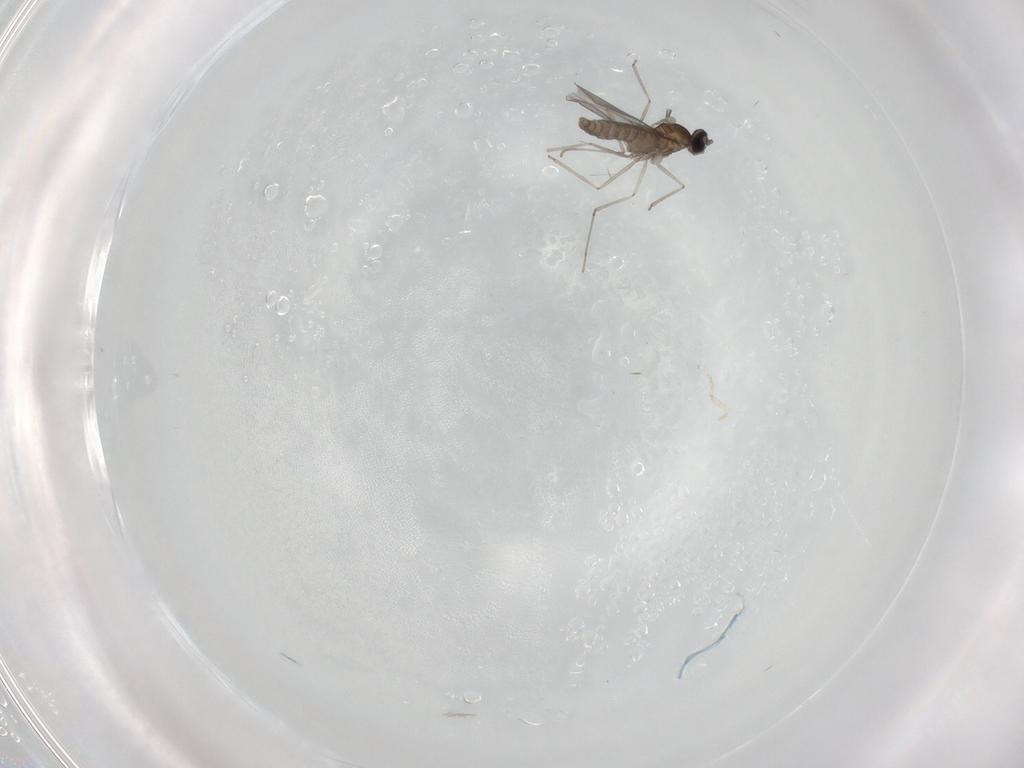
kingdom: Animalia
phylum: Arthropoda
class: Insecta
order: Diptera
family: Cecidomyiidae
